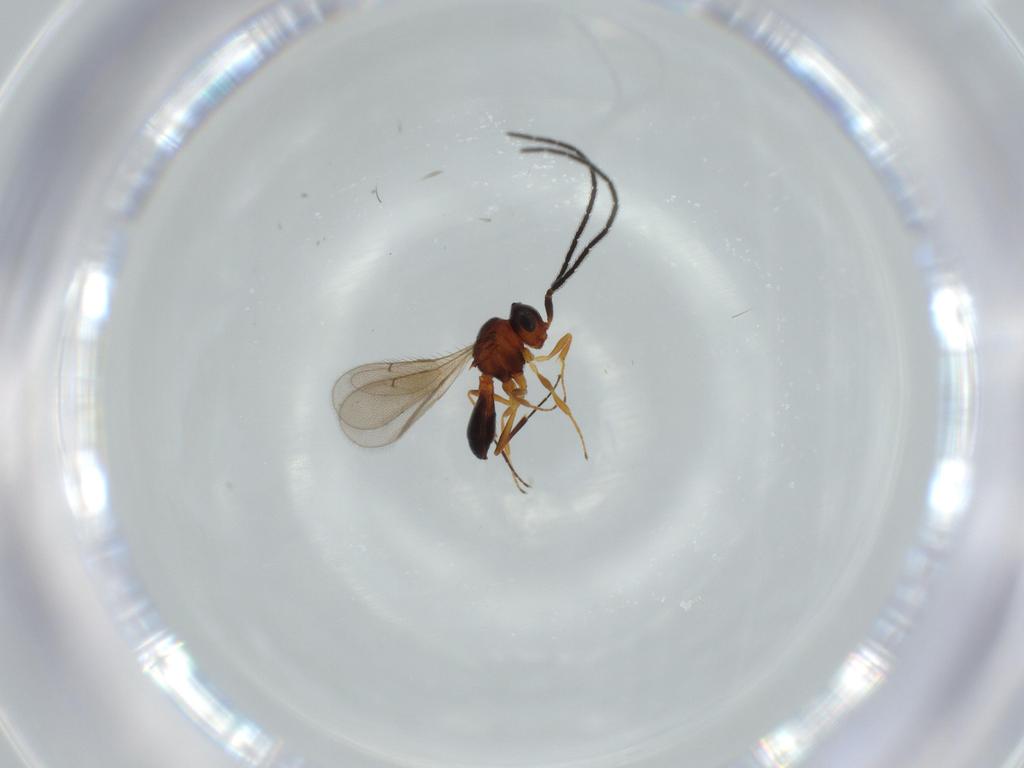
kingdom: Animalia
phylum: Arthropoda
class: Insecta
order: Hymenoptera
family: Scelionidae
